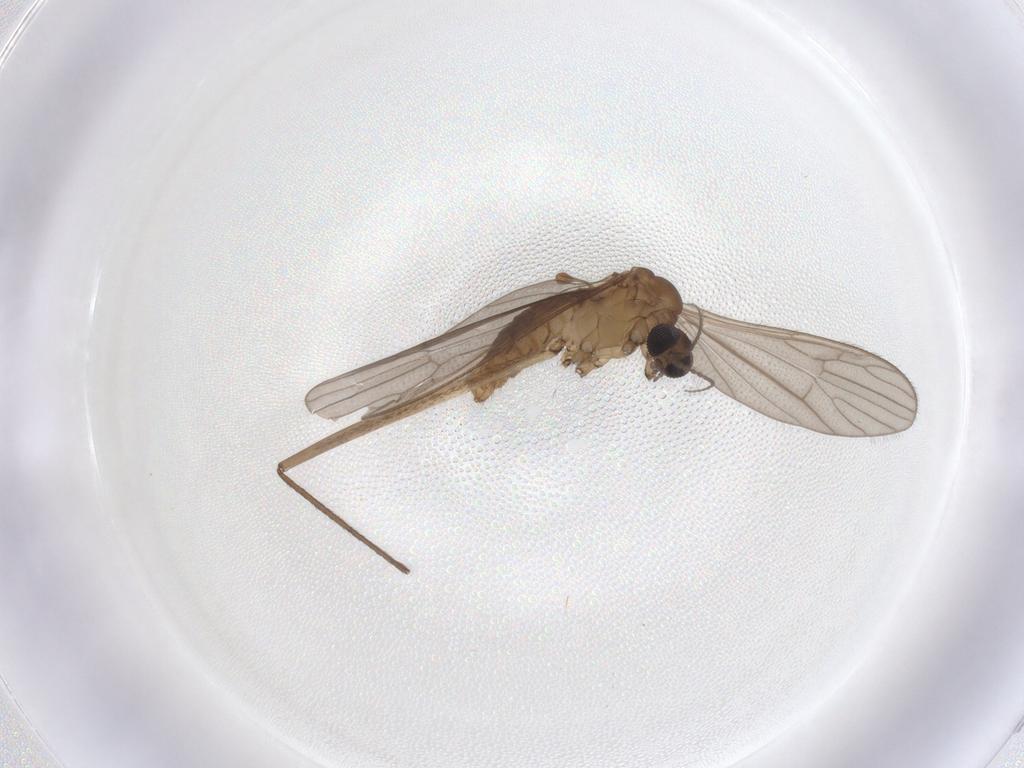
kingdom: Animalia
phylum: Arthropoda
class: Insecta
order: Diptera
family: Limoniidae
